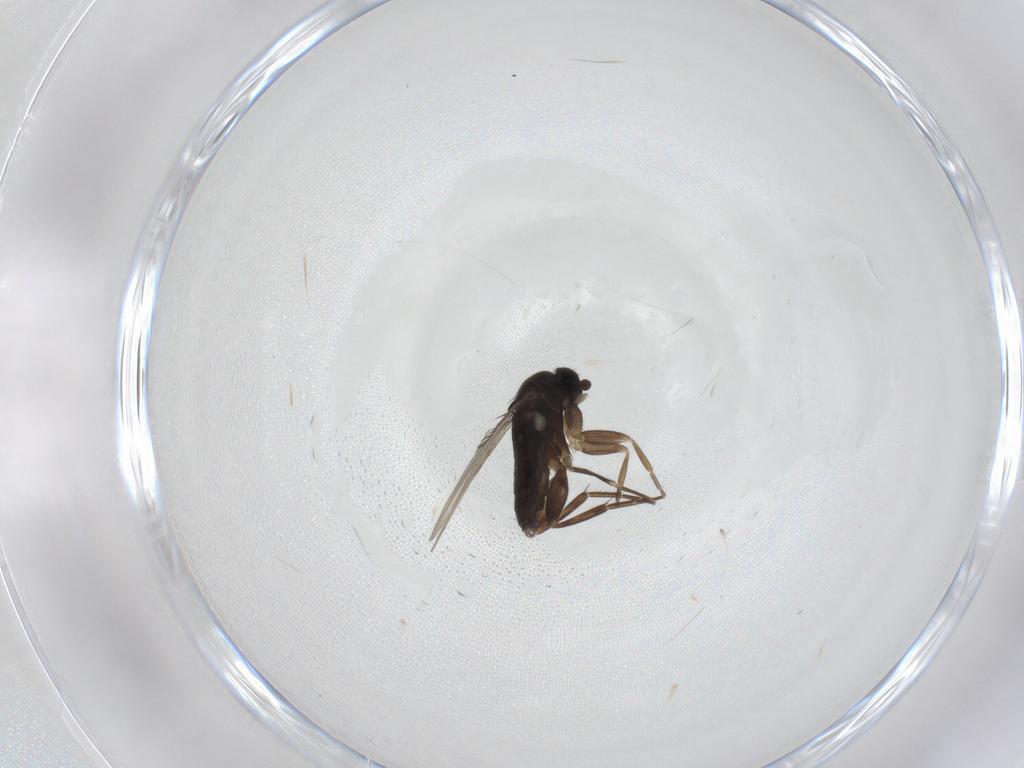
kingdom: Animalia
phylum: Arthropoda
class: Insecta
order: Diptera
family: Phoridae
